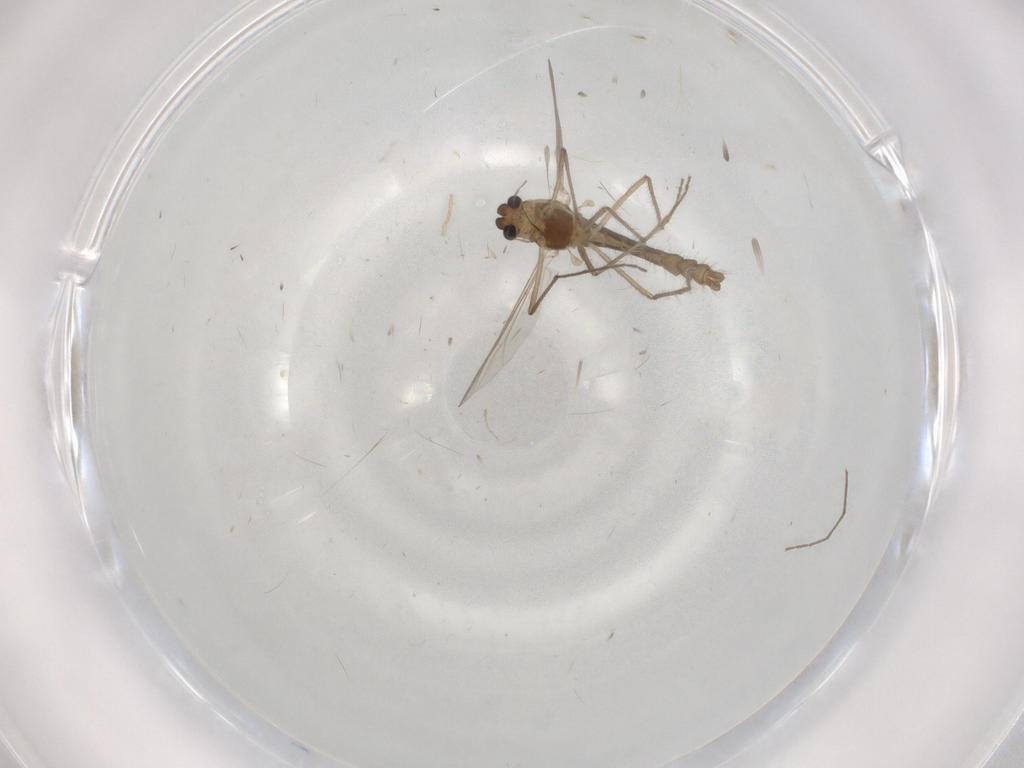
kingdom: Animalia
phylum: Arthropoda
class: Insecta
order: Diptera
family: Chironomidae
